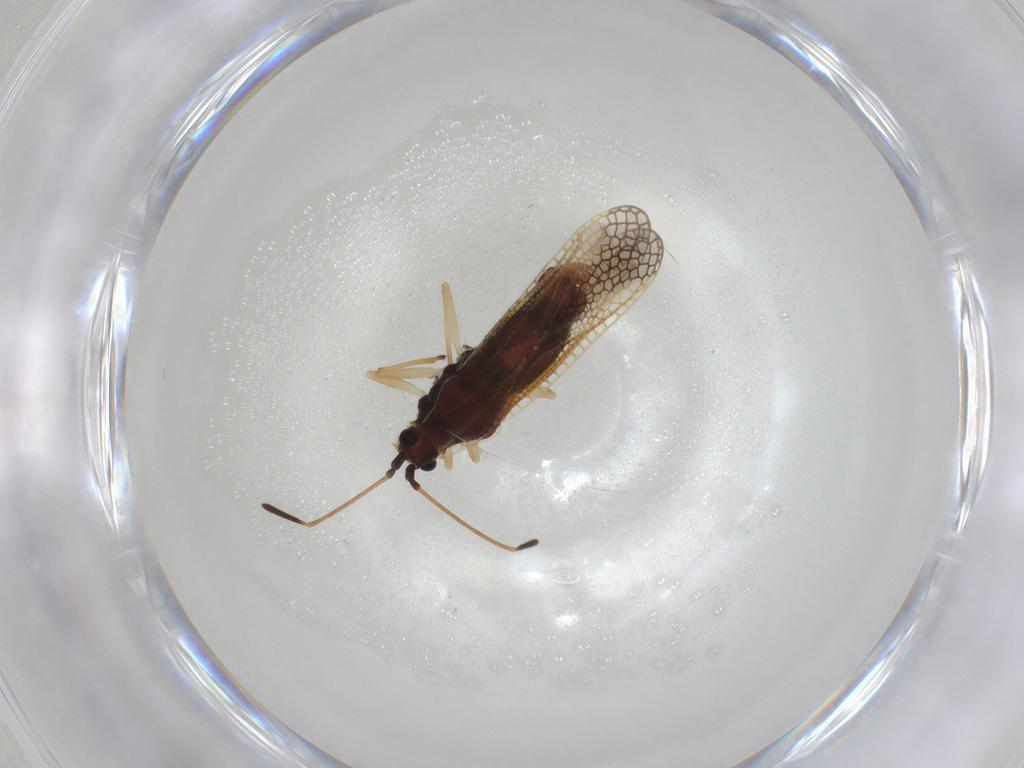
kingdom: Animalia
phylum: Arthropoda
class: Insecta
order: Hemiptera
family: Tingidae
